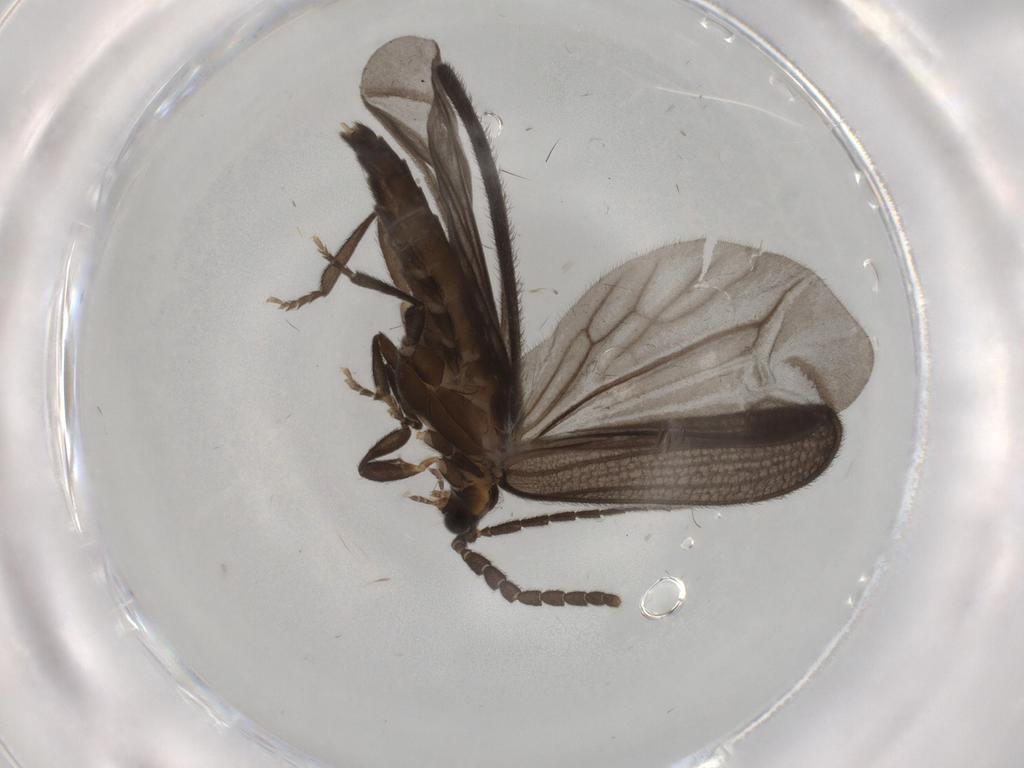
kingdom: Animalia
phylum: Arthropoda
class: Insecta
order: Coleoptera
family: Lycidae
